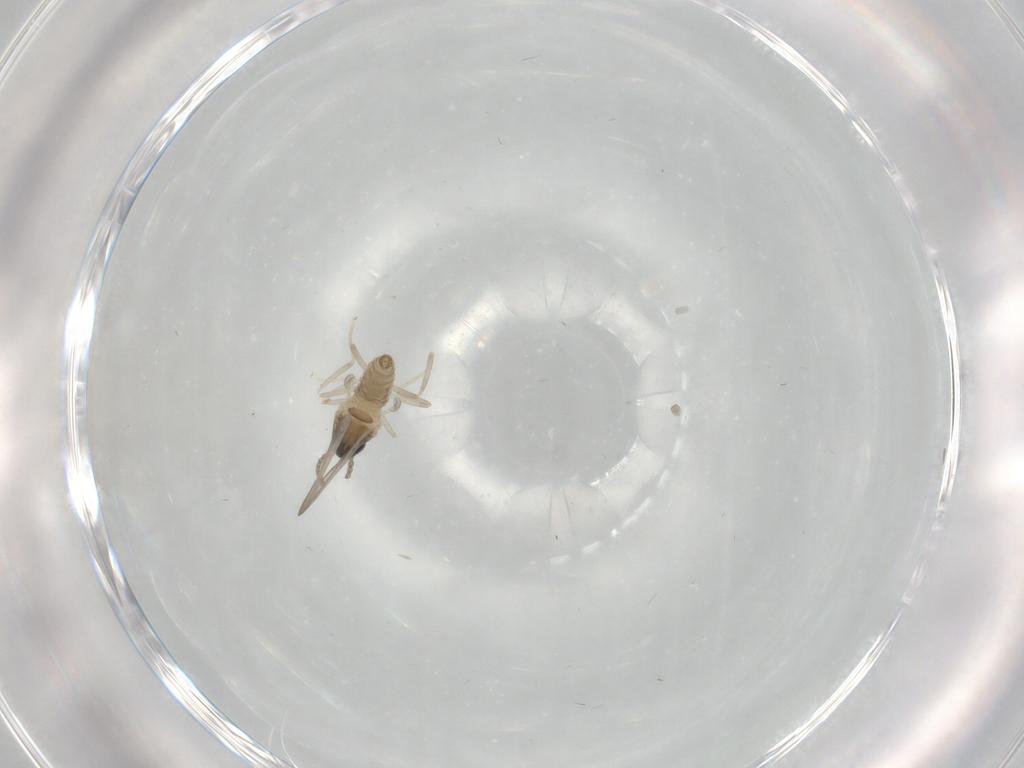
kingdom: Animalia
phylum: Arthropoda
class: Insecta
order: Diptera
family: Cecidomyiidae
